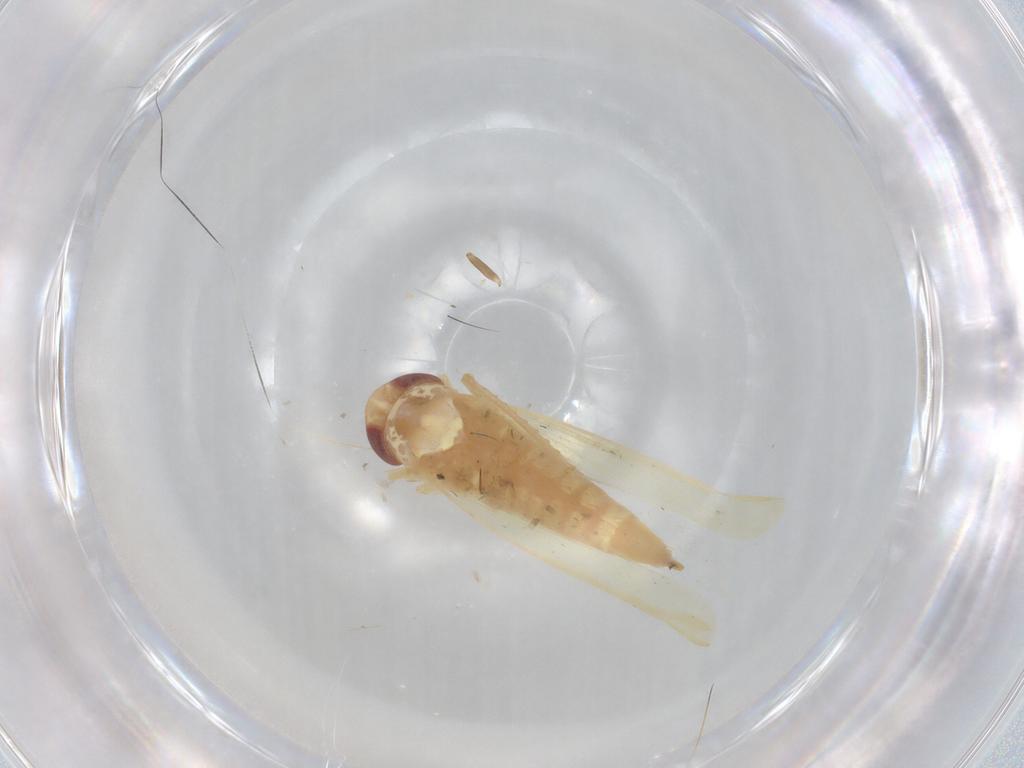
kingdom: Animalia
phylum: Arthropoda
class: Insecta
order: Hemiptera
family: Cicadellidae
